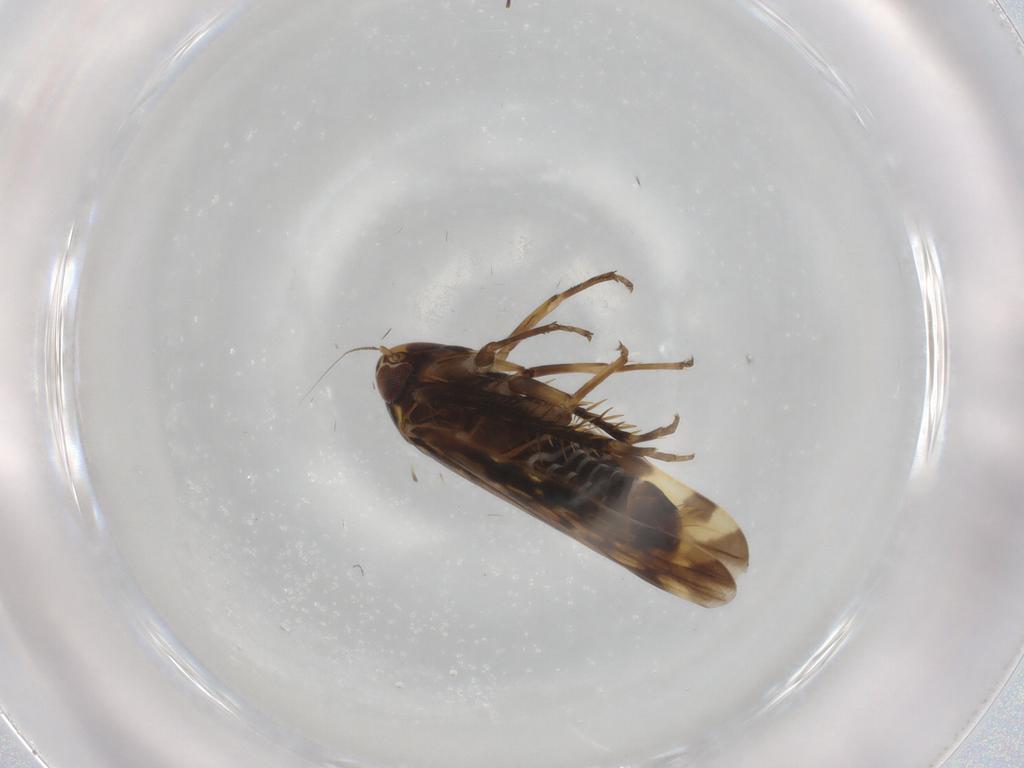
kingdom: Animalia
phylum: Arthropoda
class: Insecta
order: Hemiptera
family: Cicadellidae
